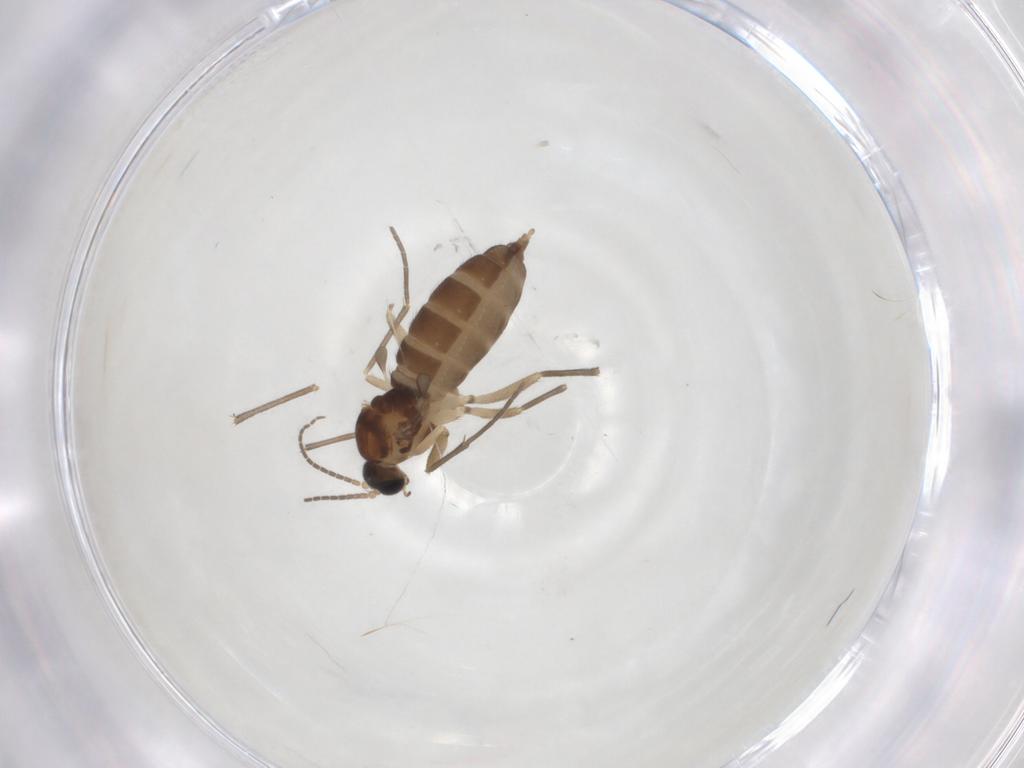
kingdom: Animalia
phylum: Arthropoda
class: Insecta
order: Diptera
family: Sciaridae
